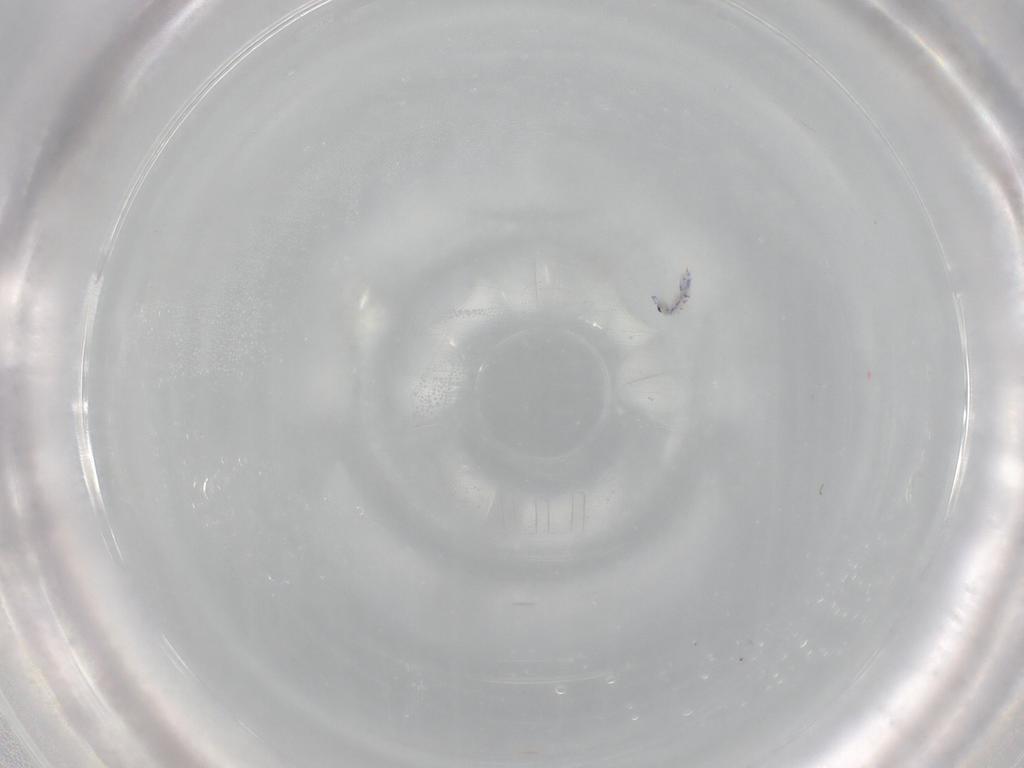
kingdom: Animalia
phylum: Arthropoda
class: Collembola
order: Entomobryomorpha
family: Entomobryidae
